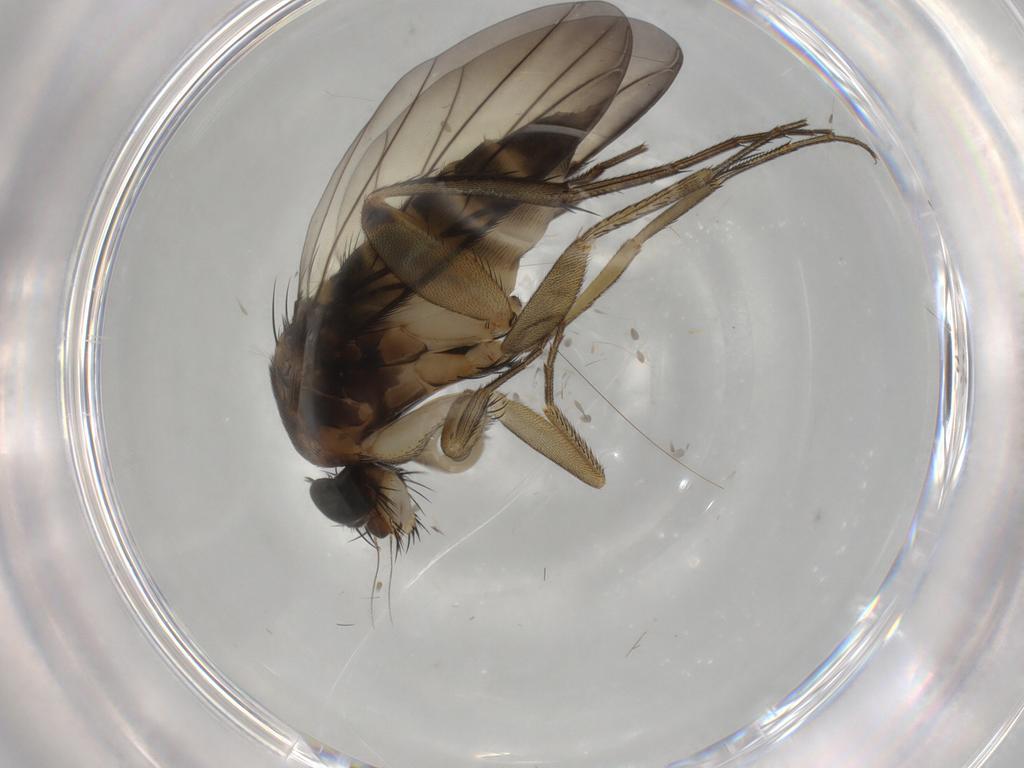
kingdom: Animalia
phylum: Arthropoda
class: Insecta
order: Diptera
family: Phoridae
